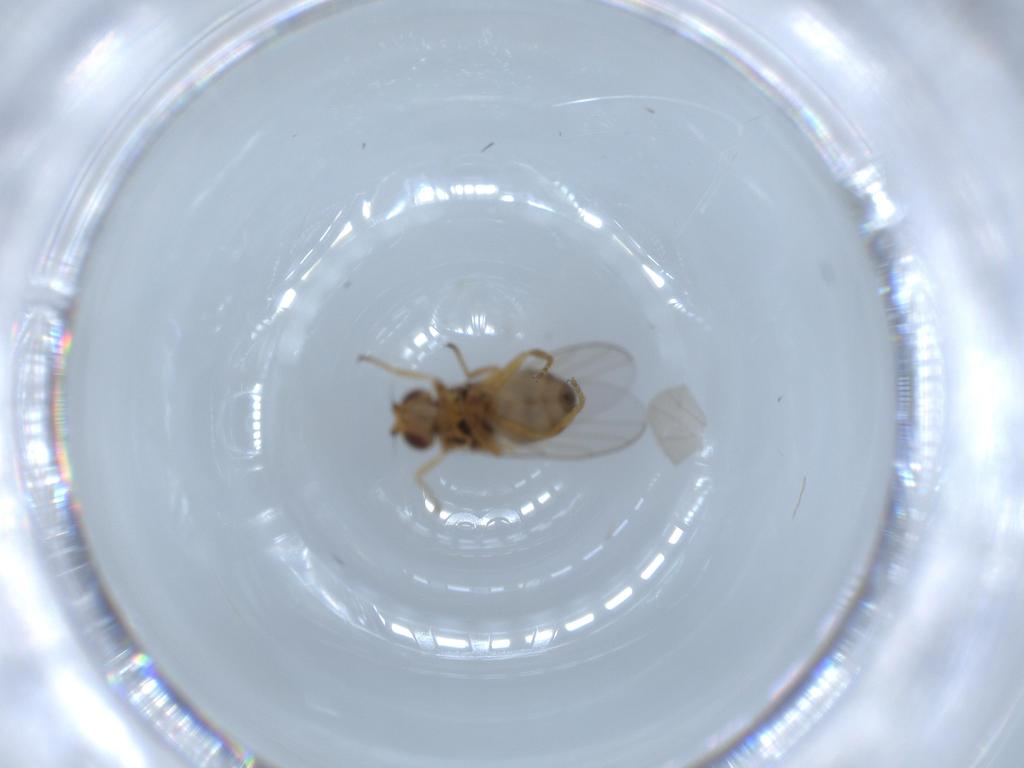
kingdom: Animalia
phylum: Arthropoda
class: Insecta
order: Diptera
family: Chloropidae
